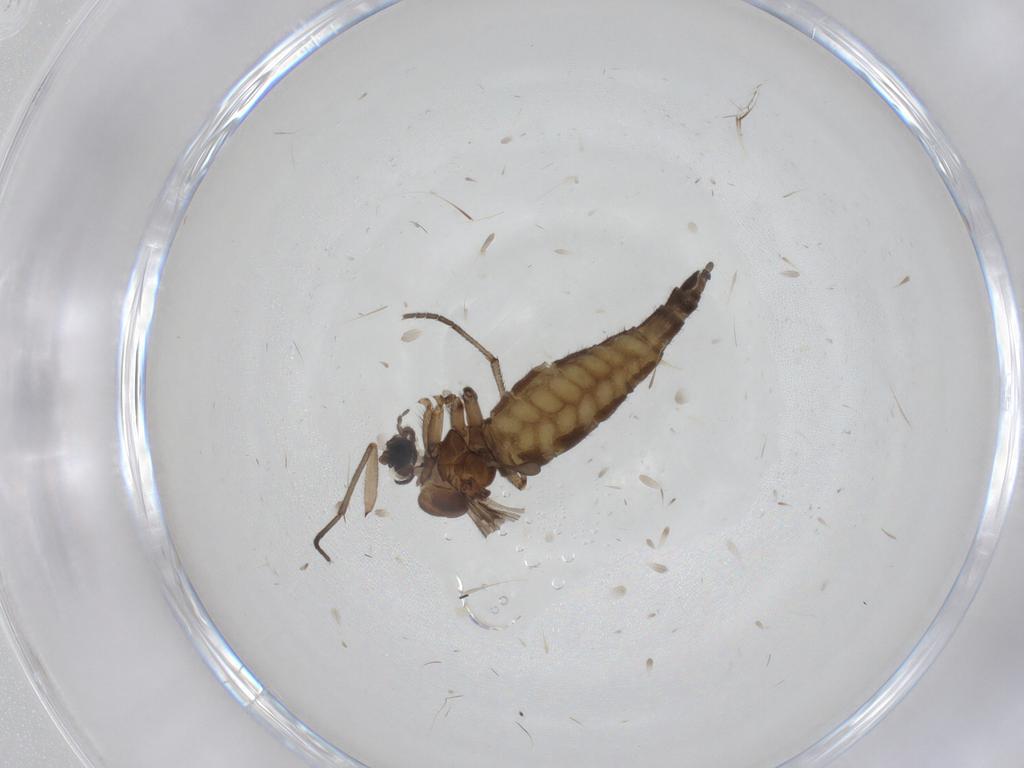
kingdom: Animalia
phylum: Arthropoda
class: Insecta
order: Diptera
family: Sciaridae
